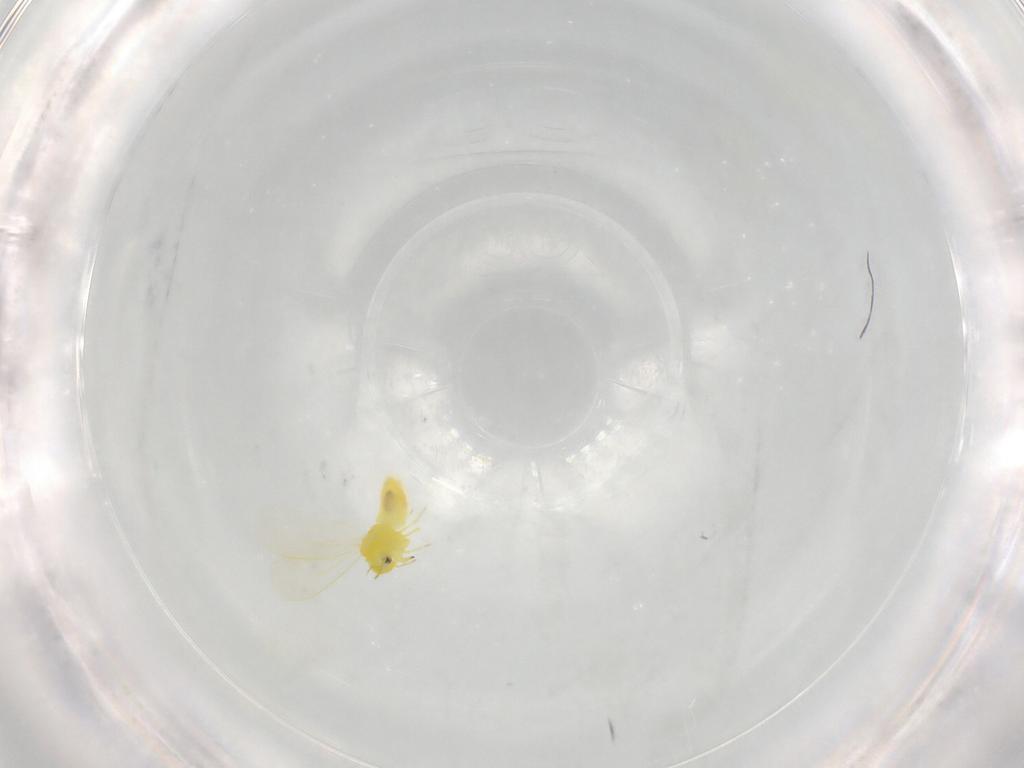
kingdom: Animalia
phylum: Arthropoda
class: Insecta
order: Hemiptera
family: Aleyrodidae
